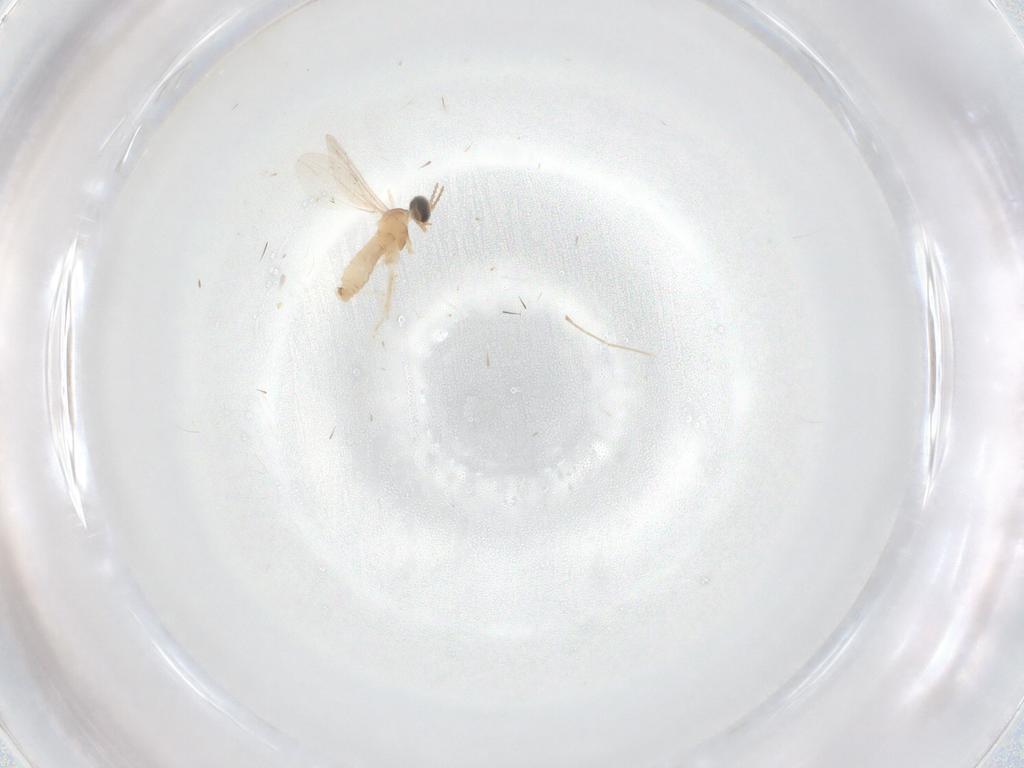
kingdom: Animalia
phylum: Arthropoda
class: Insecta
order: Diptera
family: Cecidomyiidae
